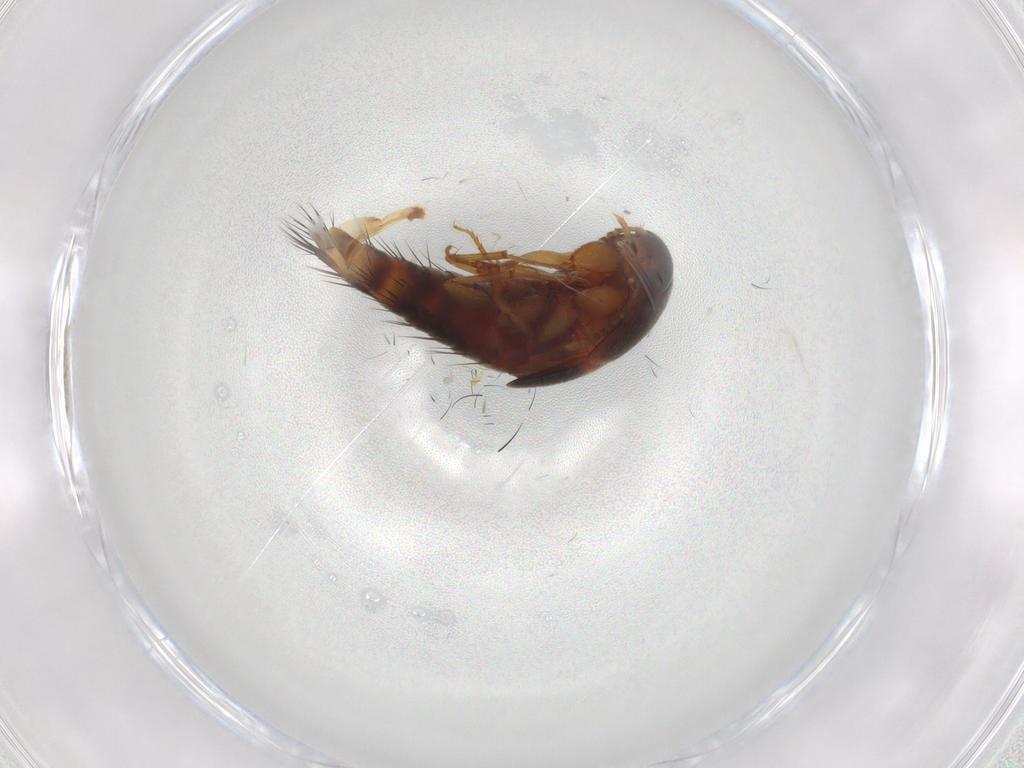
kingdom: Animalia
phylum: Arthropoda
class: Insecta
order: Coleoptera
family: Staphylinidae
